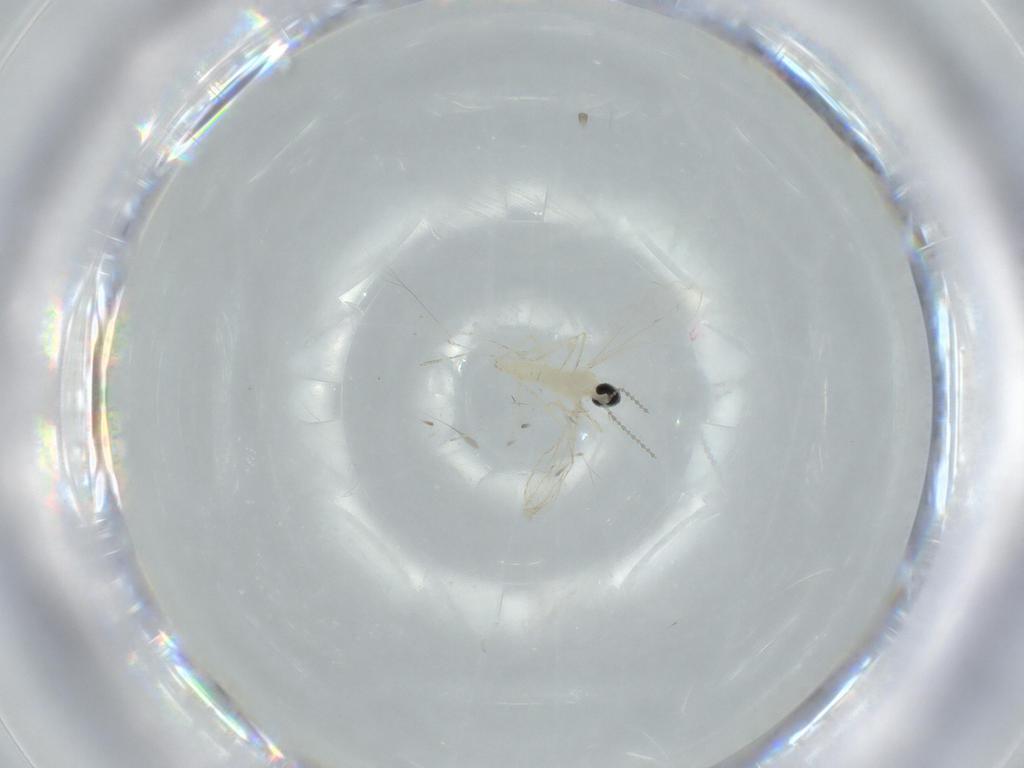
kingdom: Animalia
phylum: Arthropoda
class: Insecta
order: Diptera
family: Cecidomyiidae
